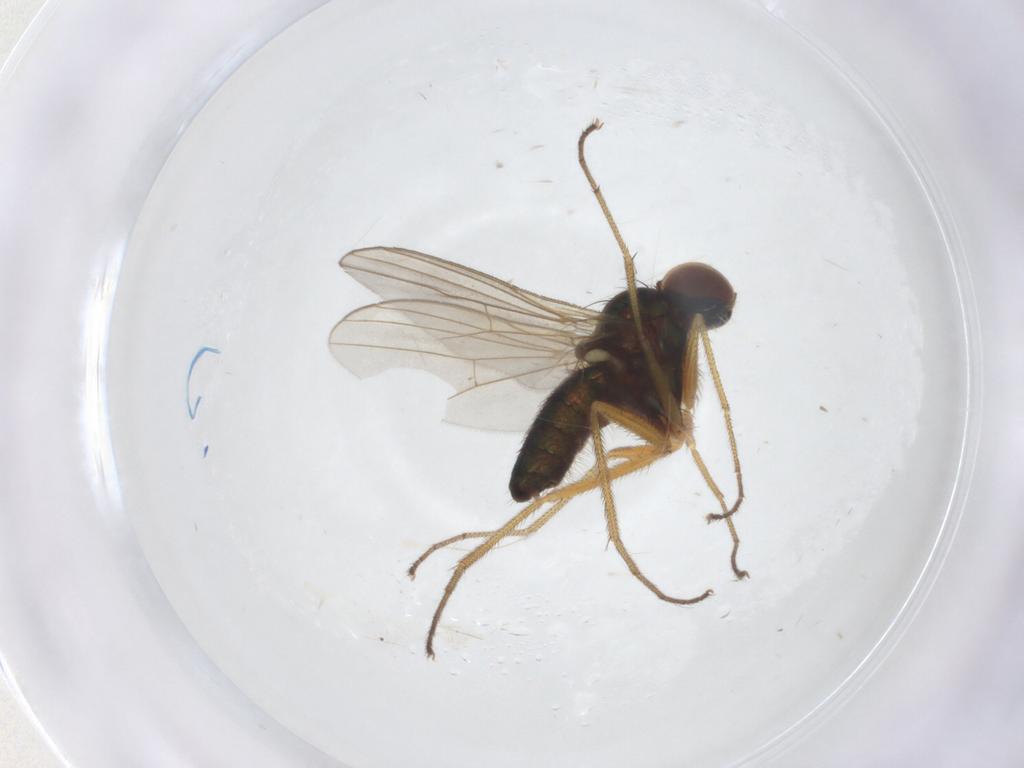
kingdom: Animalia
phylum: Arthropoda
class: Insecta
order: Diptera
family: Dolichopodidae
